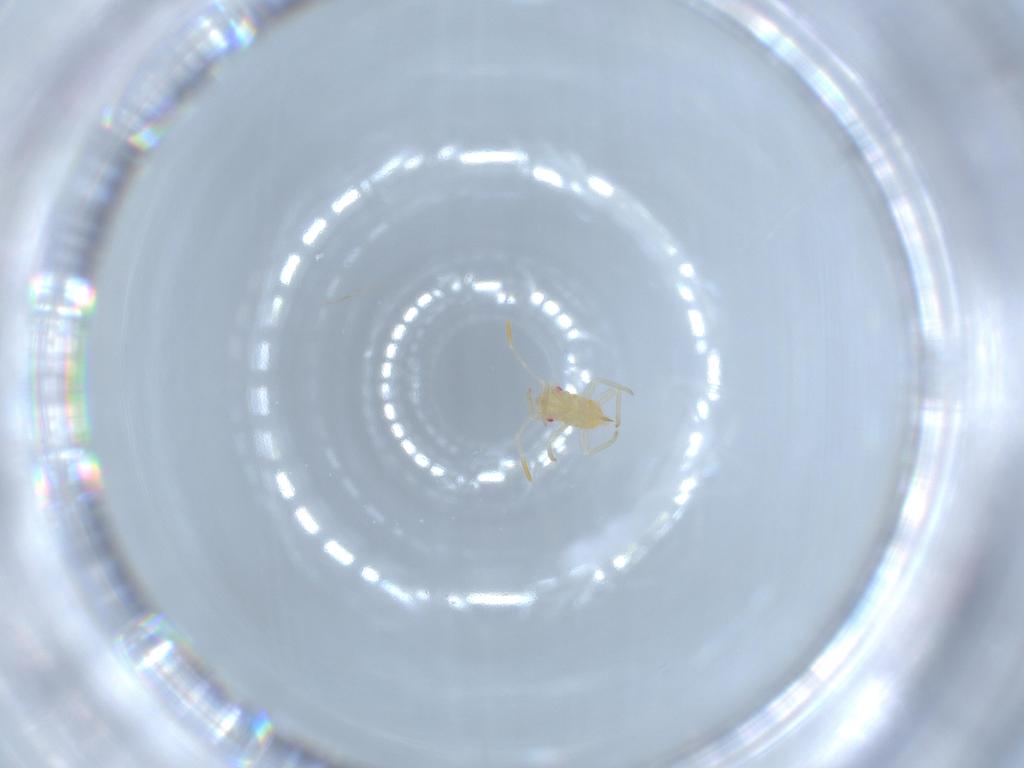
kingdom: Animalia
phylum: Arthropoda
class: Insecta
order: Hemiptera
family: Miridae
